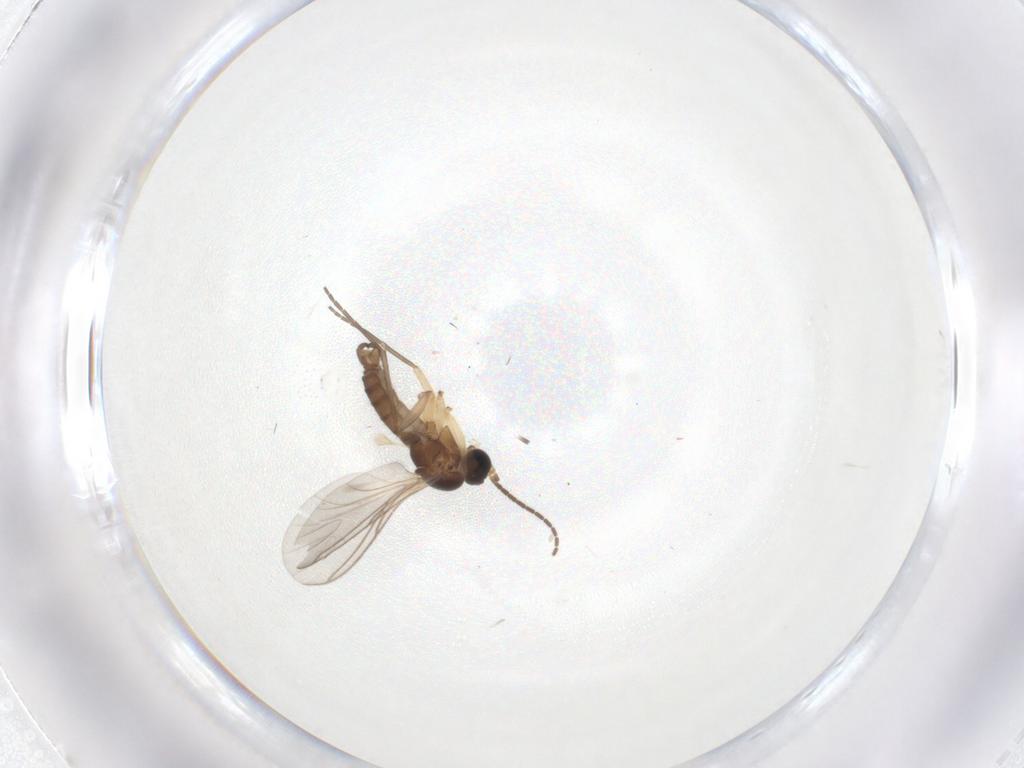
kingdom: Animalia
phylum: Arthropoda
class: Insecta
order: Diptera
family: Sciaridae
